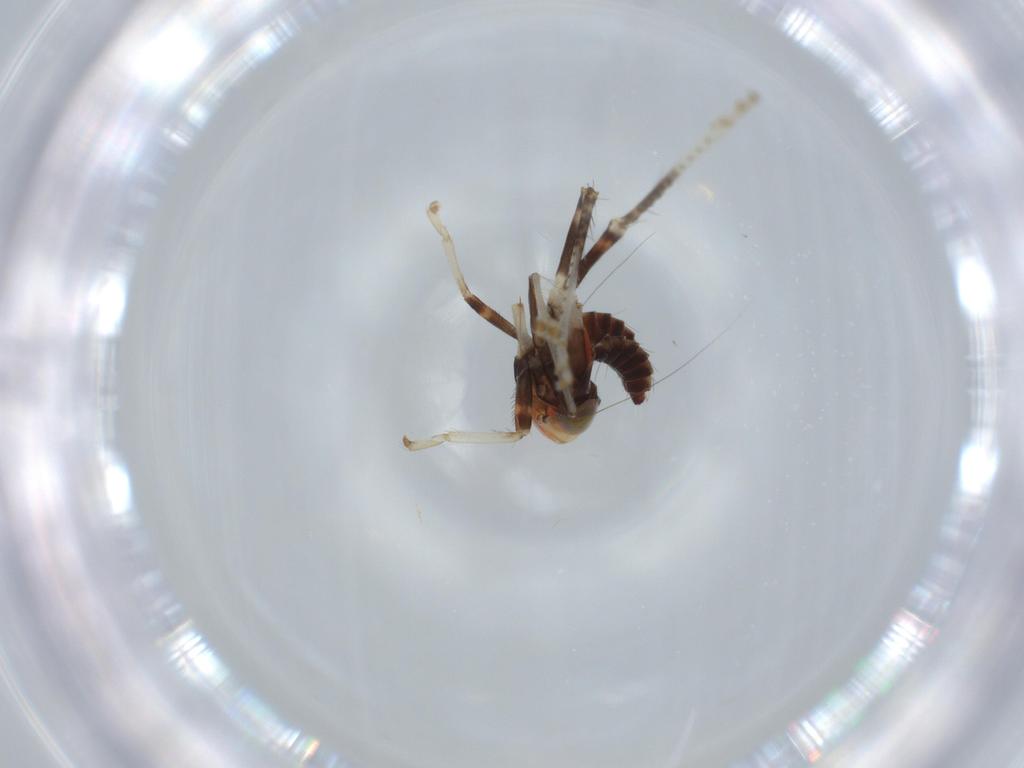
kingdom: Animalia
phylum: Arthropoda
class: Insecta
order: Hemiptera
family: Cicadellidae
